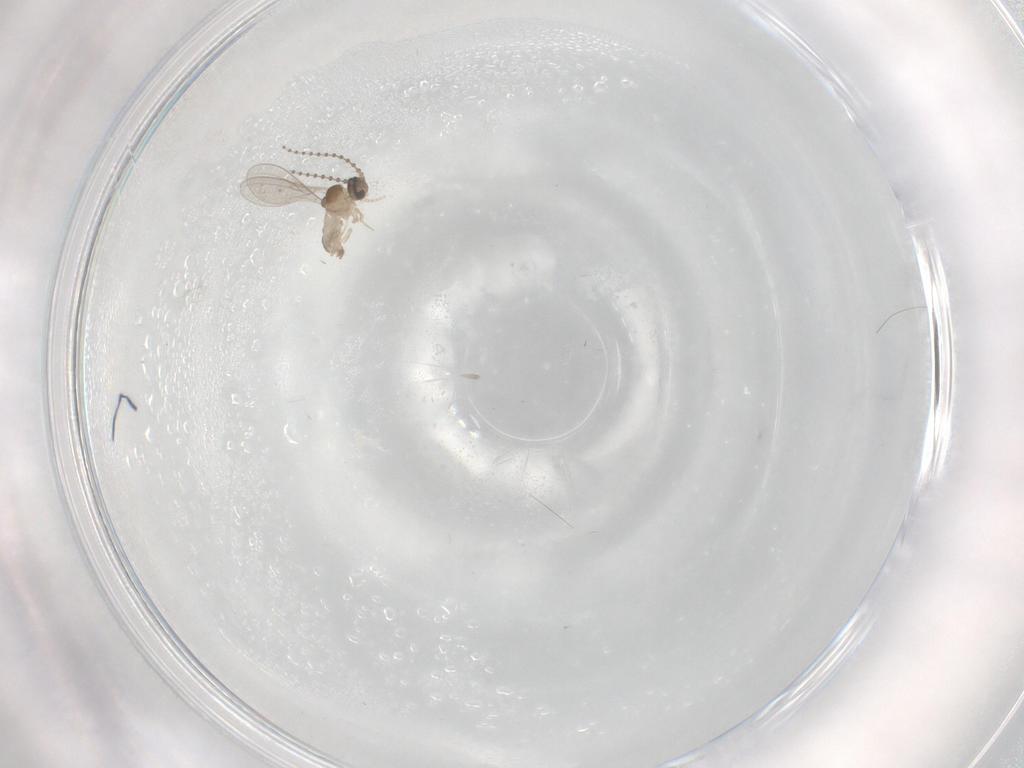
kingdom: Animalia
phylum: Arthropoda
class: Insecta
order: Diptera
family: Cecidomyiidae
